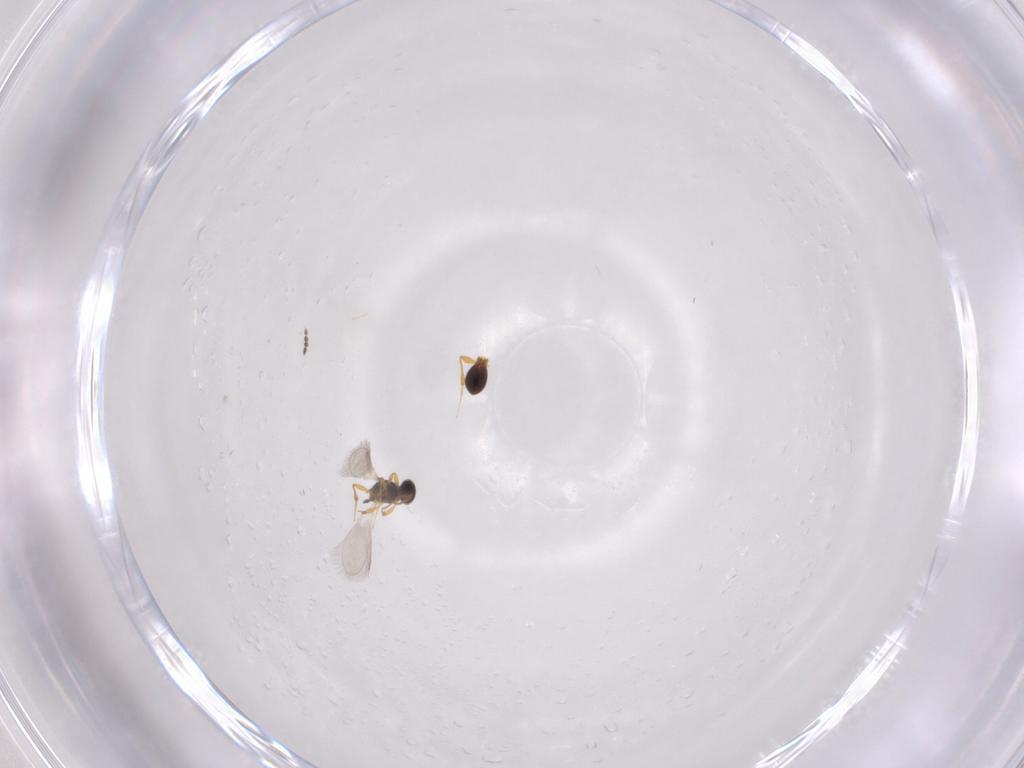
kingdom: Animalia
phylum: Arthropoda
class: Insecta
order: Hymenoptera
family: Platygastridae
